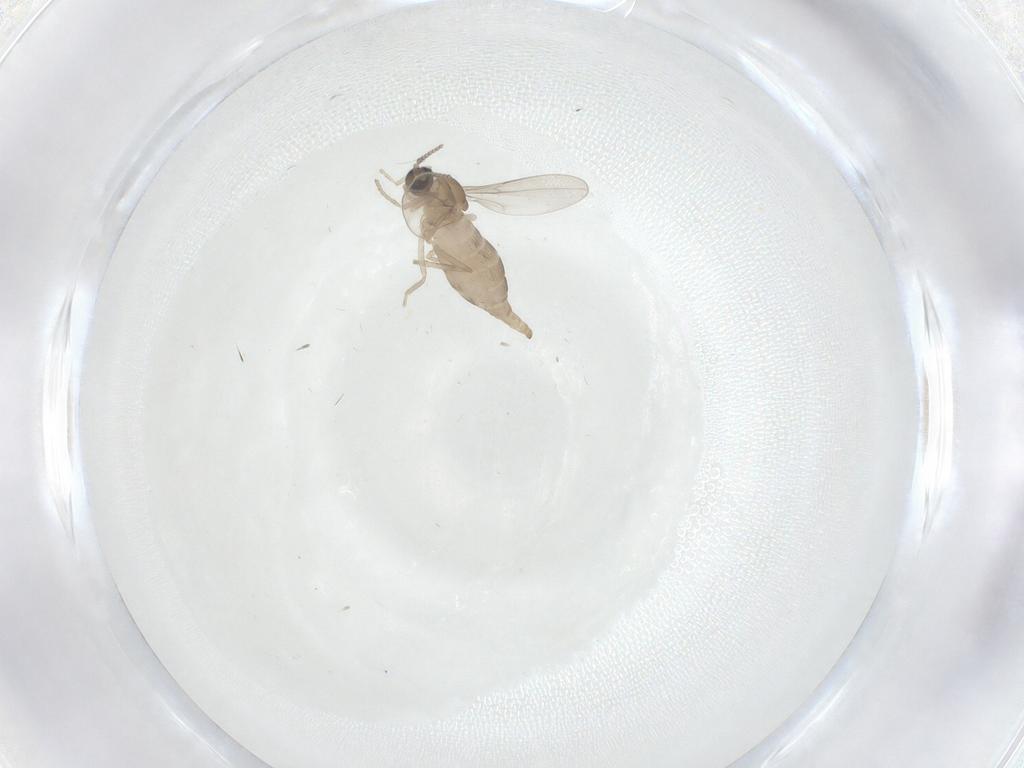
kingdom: Animalia
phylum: Arthropoda
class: Insecta
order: Diptera
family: Cecidomyiidae
